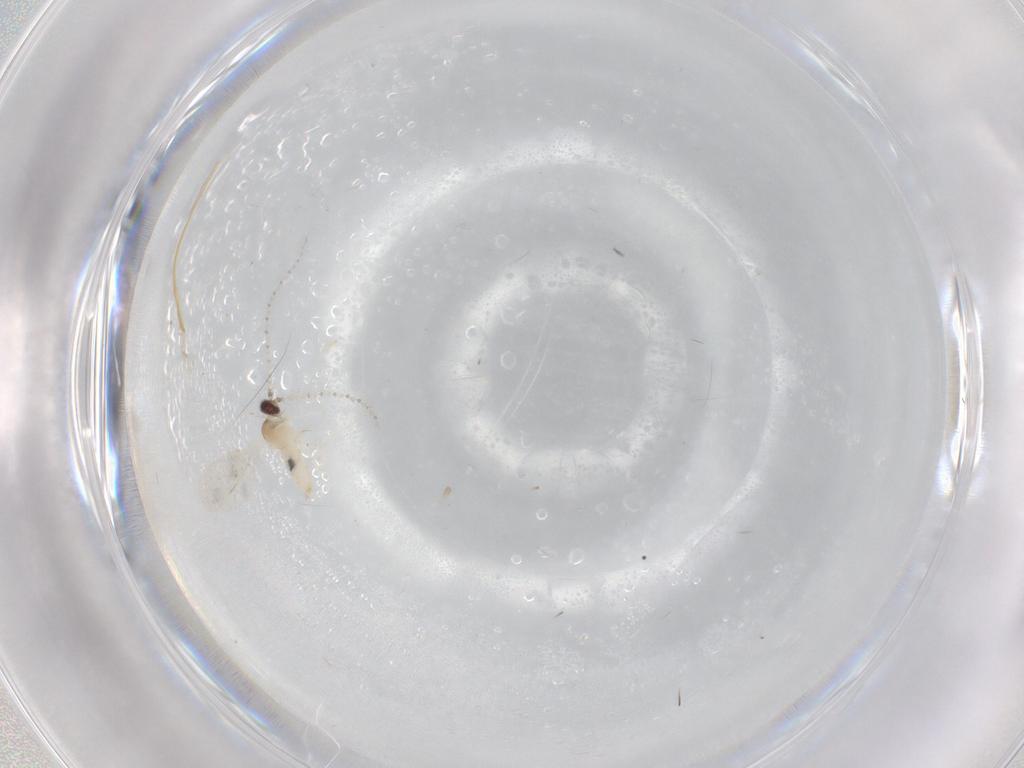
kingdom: Animalia
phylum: Arthropoda
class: Insecta
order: Diptera
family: Cecidomyiidae
